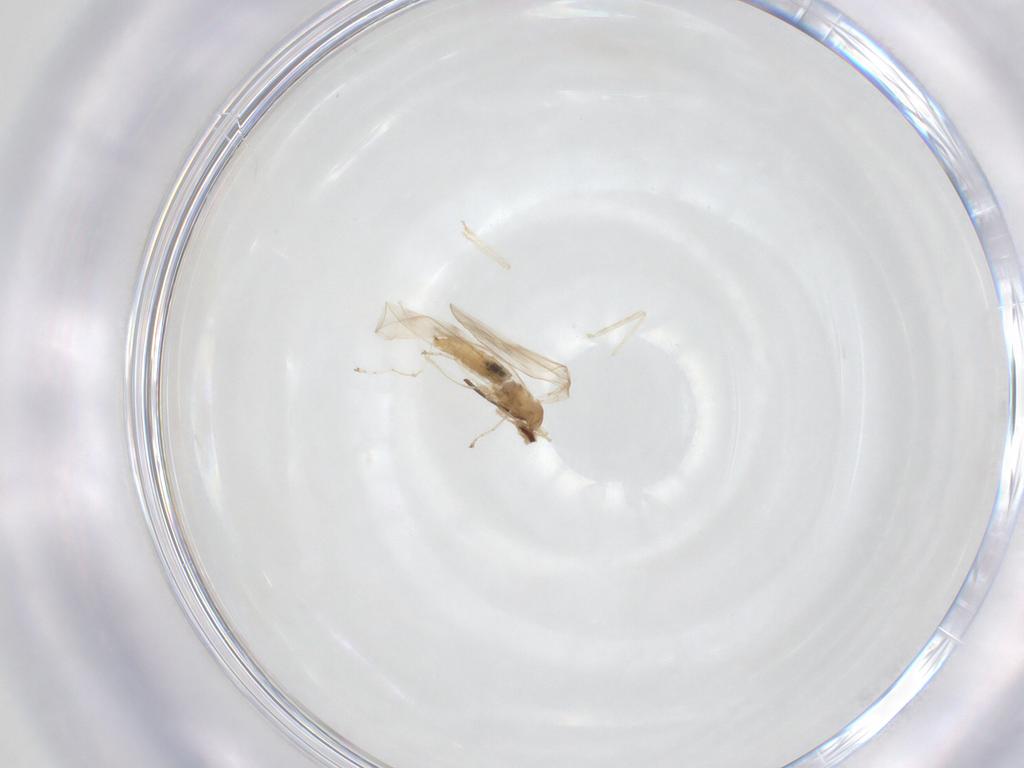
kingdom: Animalia
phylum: Arthropoda
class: Insecta
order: Diptera
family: Cecidomyiidae
